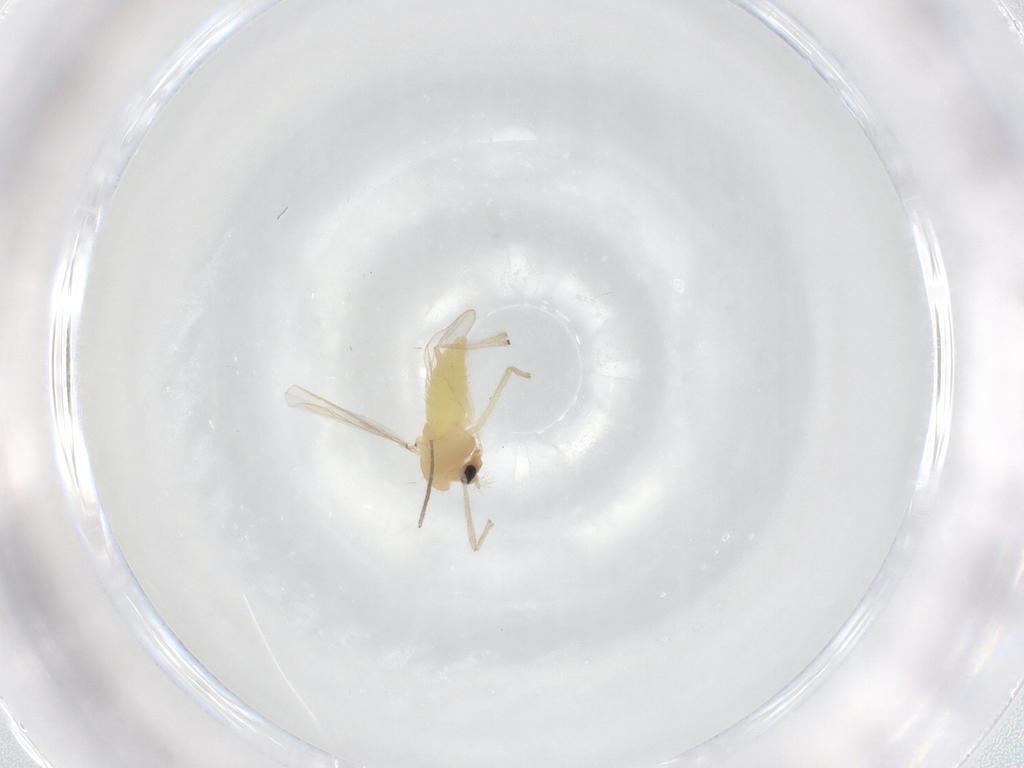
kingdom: Animalia
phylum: Arthropoda
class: Insecta
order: Diptera
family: Chironomidae
